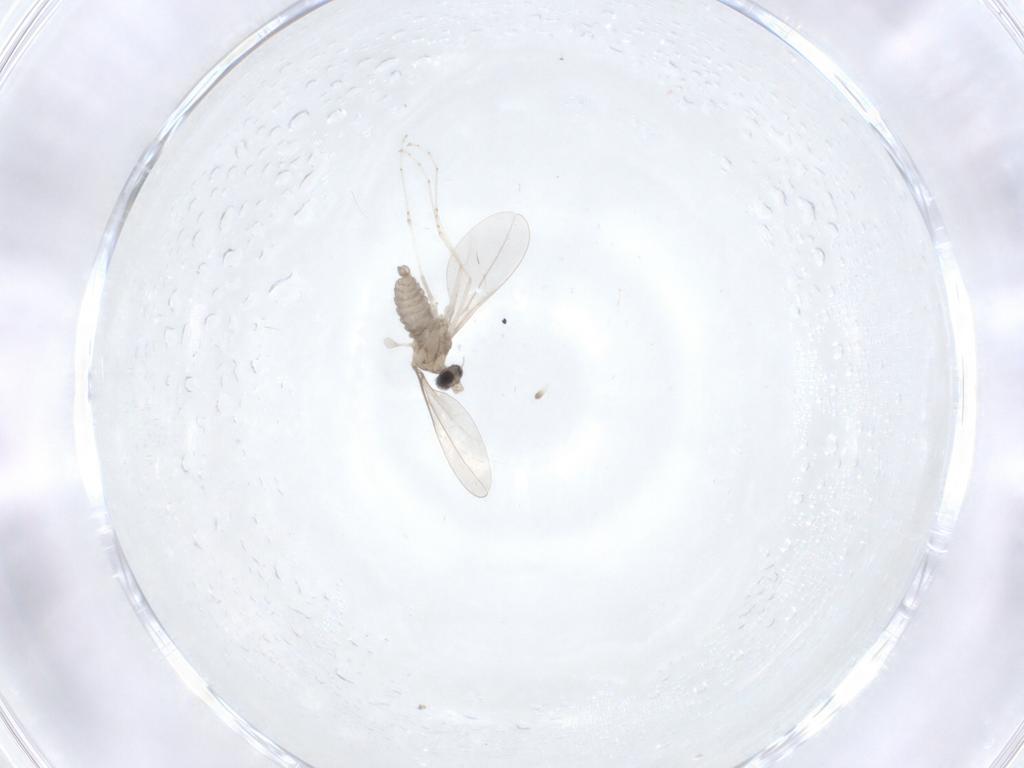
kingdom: Animalia
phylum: Arthropoda
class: Insecta
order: Diptera
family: Cecidomyiidae
